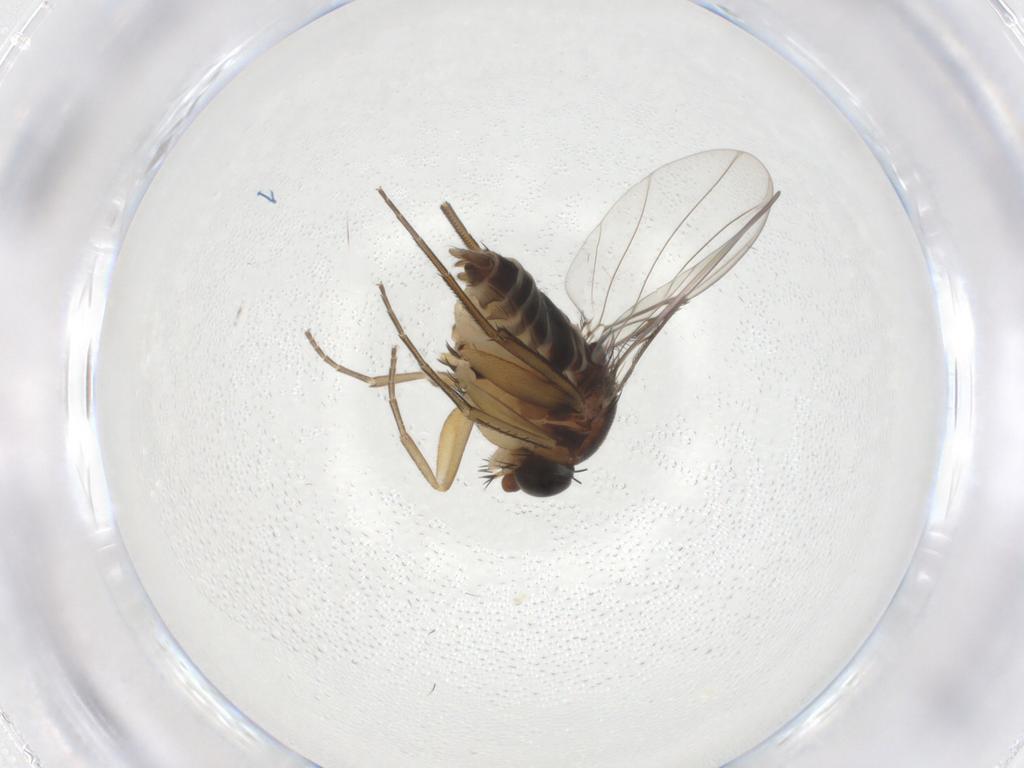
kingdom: Animalia
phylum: Arthropoda
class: Insecta
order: Diptera
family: Phoridae
